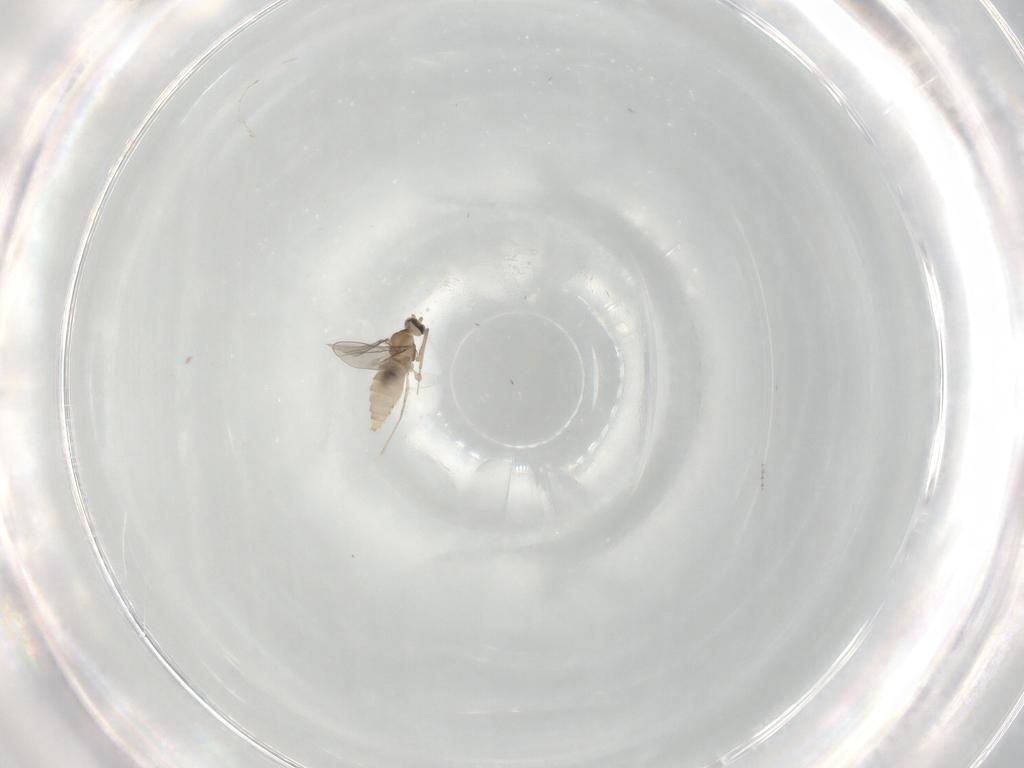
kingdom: Animalia
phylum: Arthropoda
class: Insecta
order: Diptera
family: Cecidomyiidae
